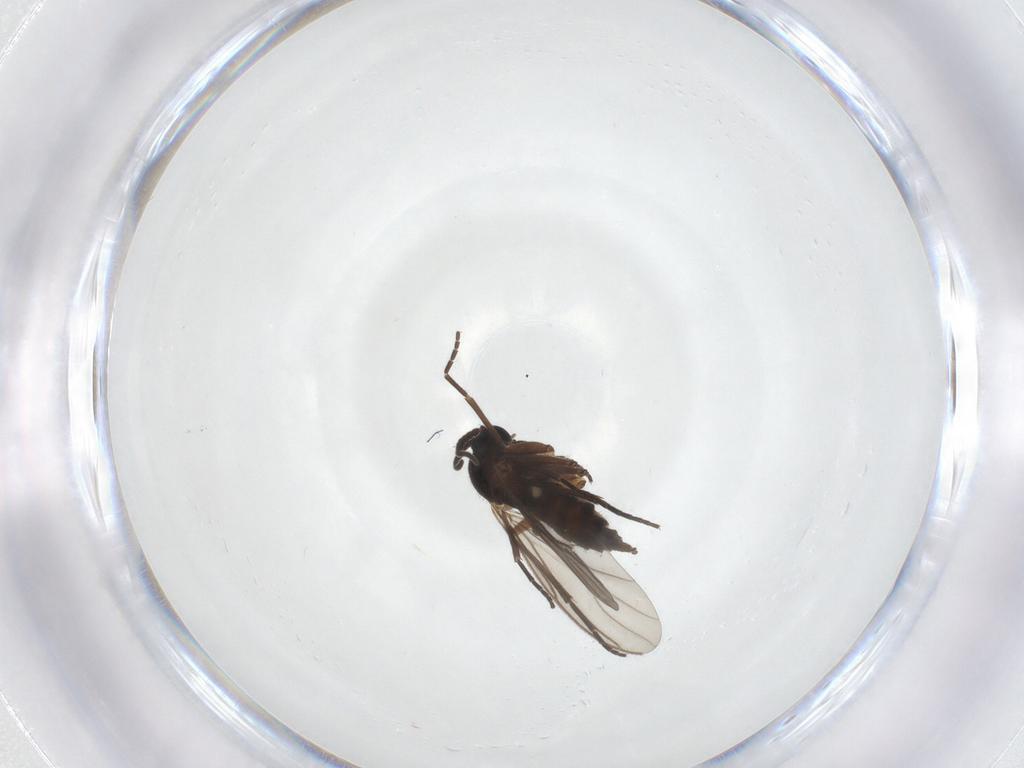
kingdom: Animalia
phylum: Arthropoda
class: Insecta
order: Diptera
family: Sciaridae
